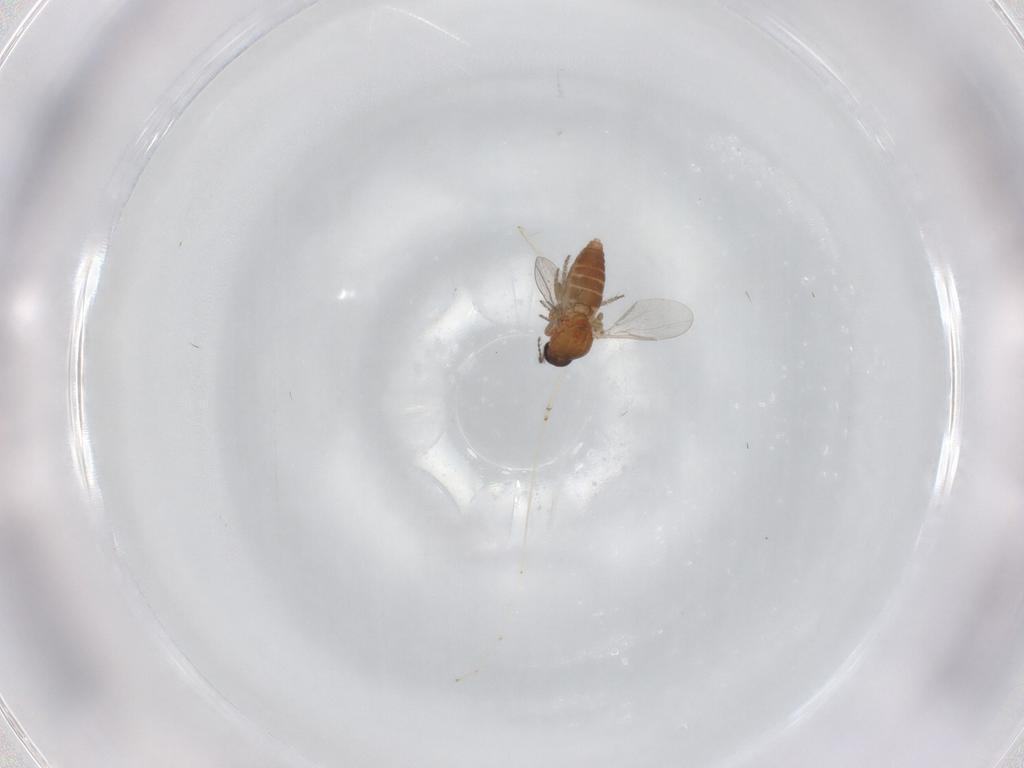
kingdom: Animalia
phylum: Arthropoda
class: Insecta
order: Diptera
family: Ceratopogonidae
